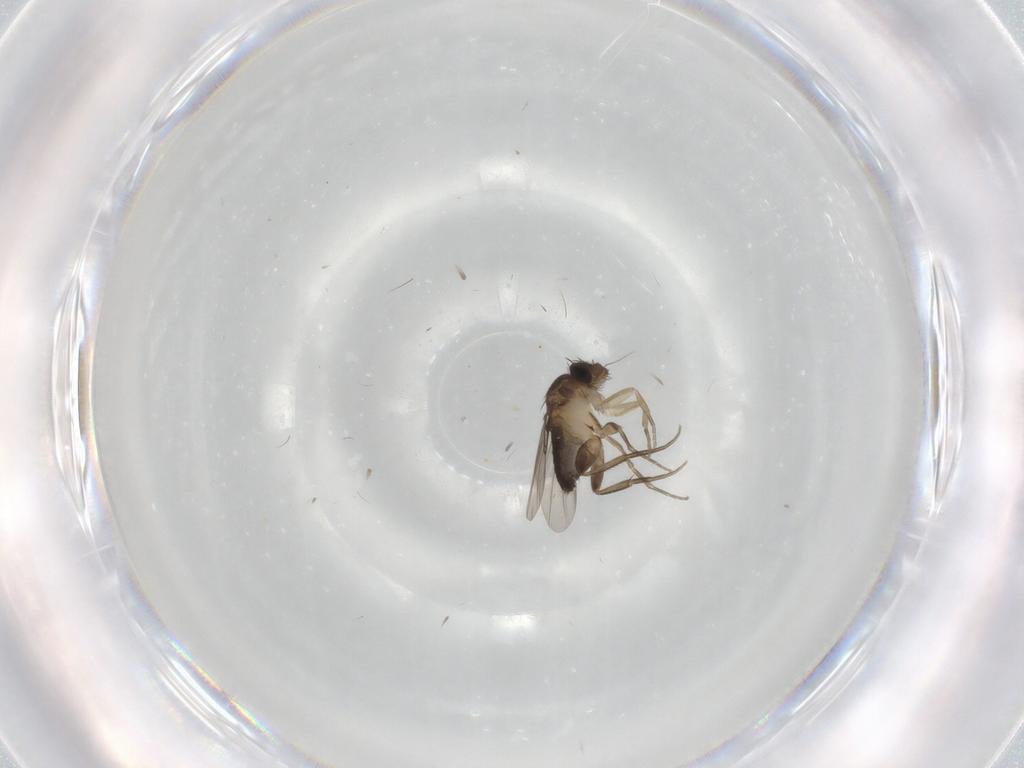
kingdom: Animalia
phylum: Arthropoda
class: Insecta
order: Diptera
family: Phoridae
